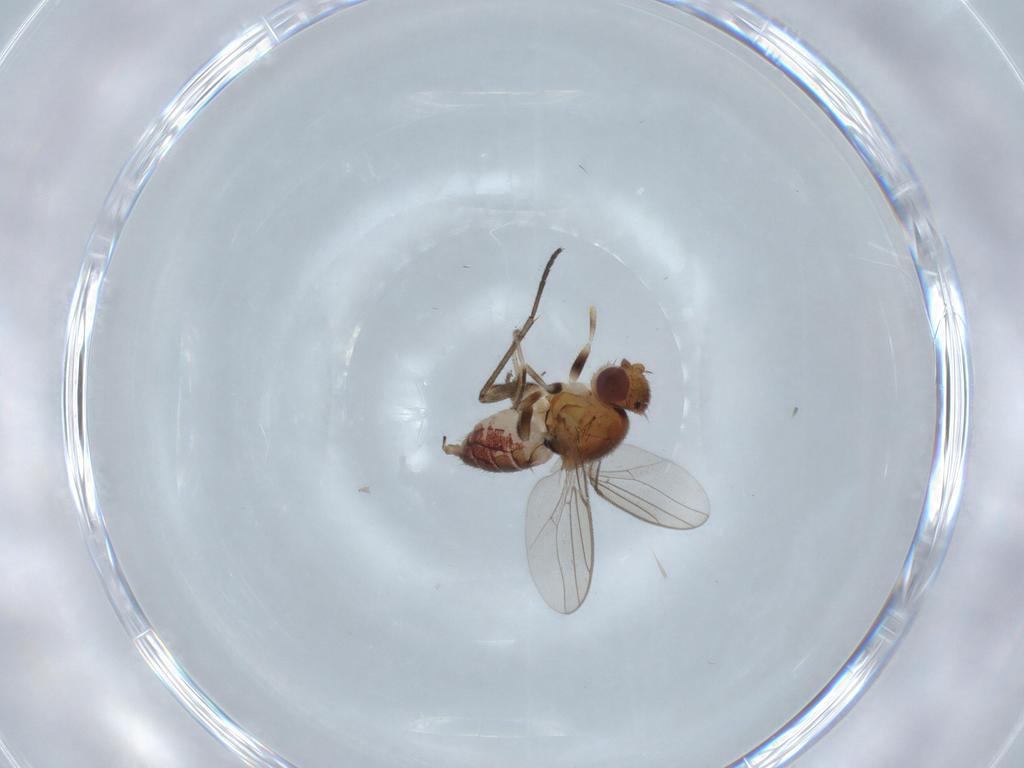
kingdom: Animalia
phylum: Arthropoda
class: Insecta
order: Diptera
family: Chloropidae
